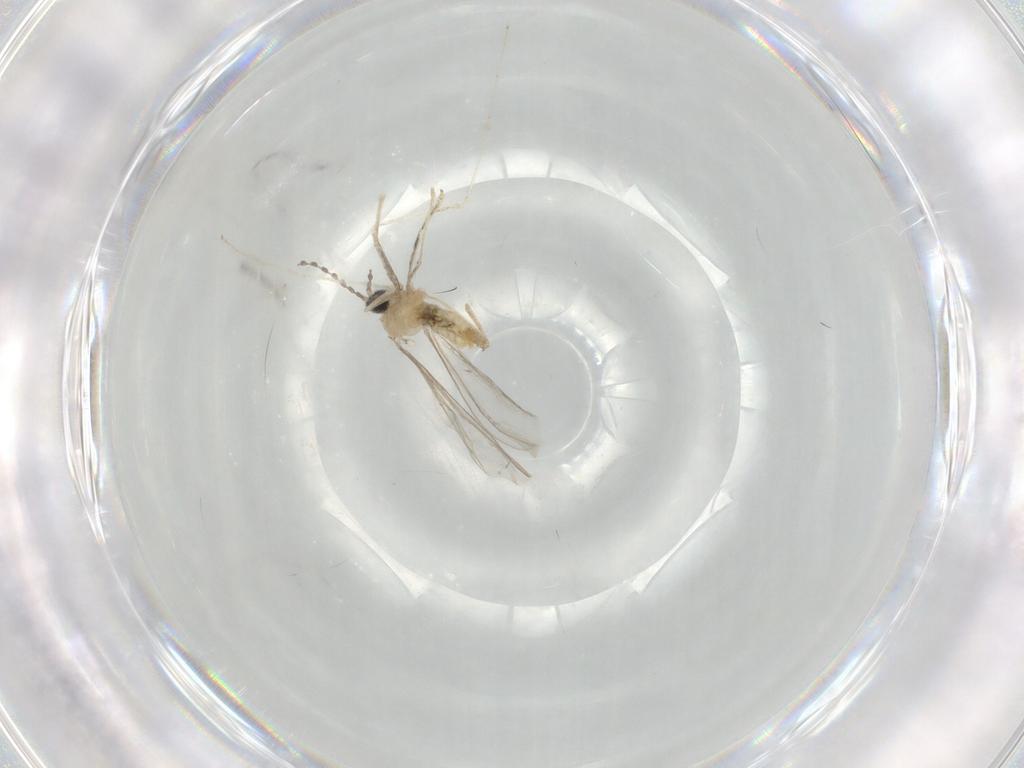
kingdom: Animalia
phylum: Arthropoda
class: Insecta
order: Diptera
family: Cecidomyiidae
